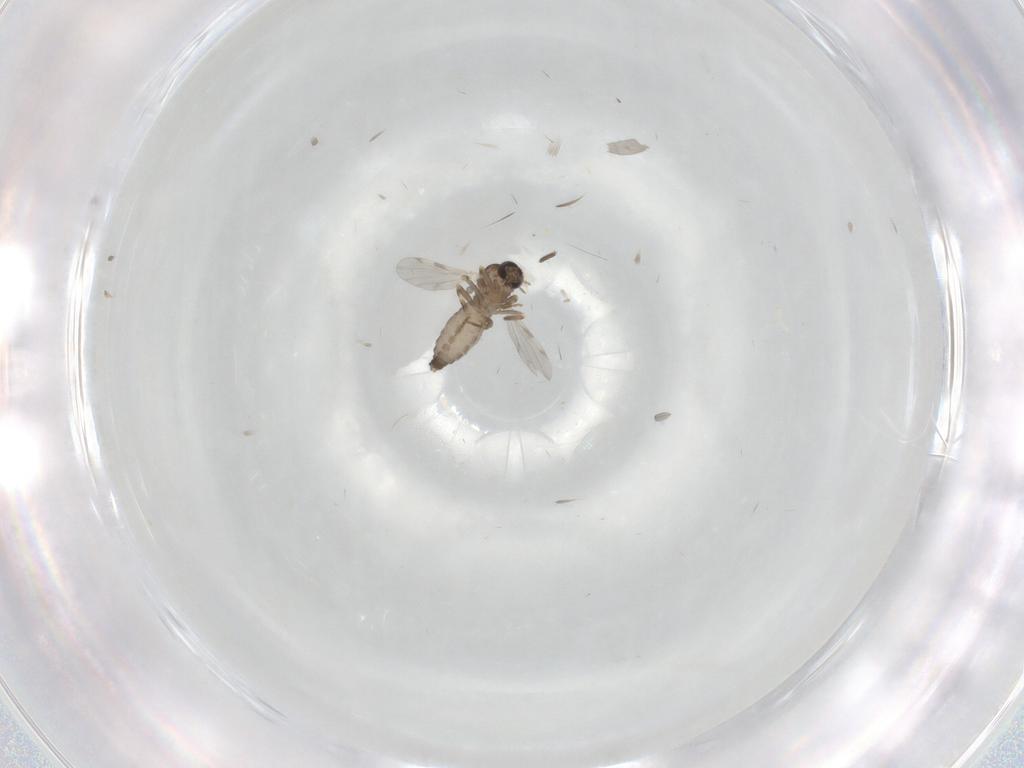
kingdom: Animalia
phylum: Arthropoda
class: Insecta
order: Diptera
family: Ceratopogonidae
